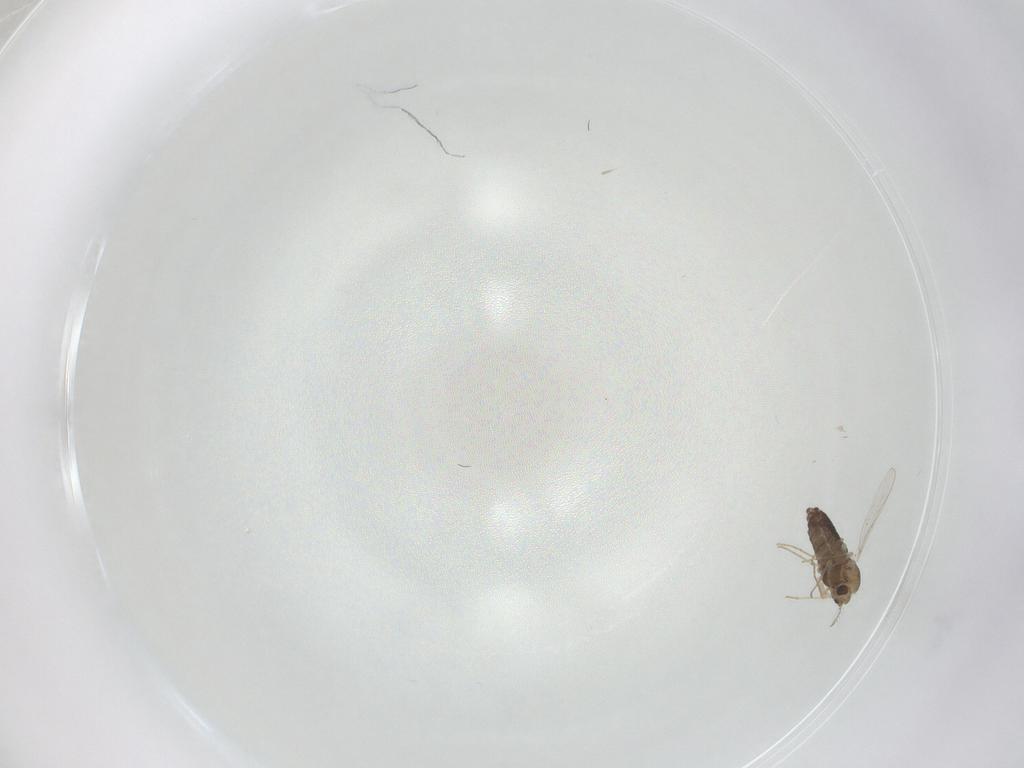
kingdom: Animalia
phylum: Arthropoda
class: Insecta
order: Diptera
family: Chironomidae
